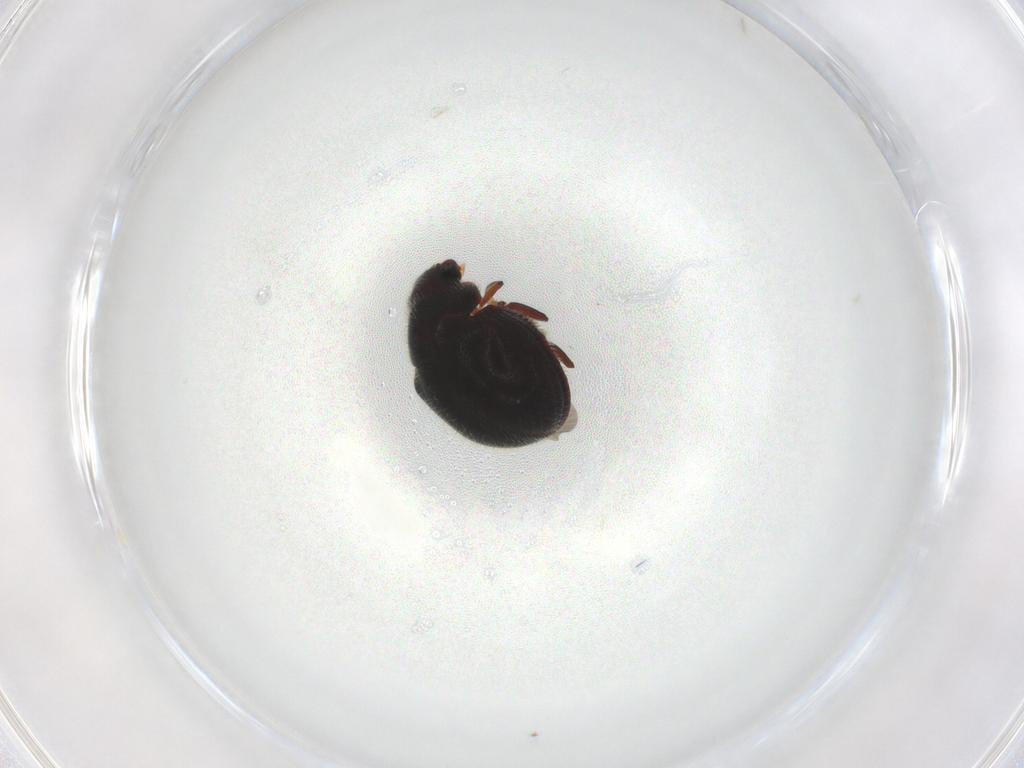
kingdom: Animalia
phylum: Arthropoda
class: Insecta
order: Coleoptera
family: Ptinidae
